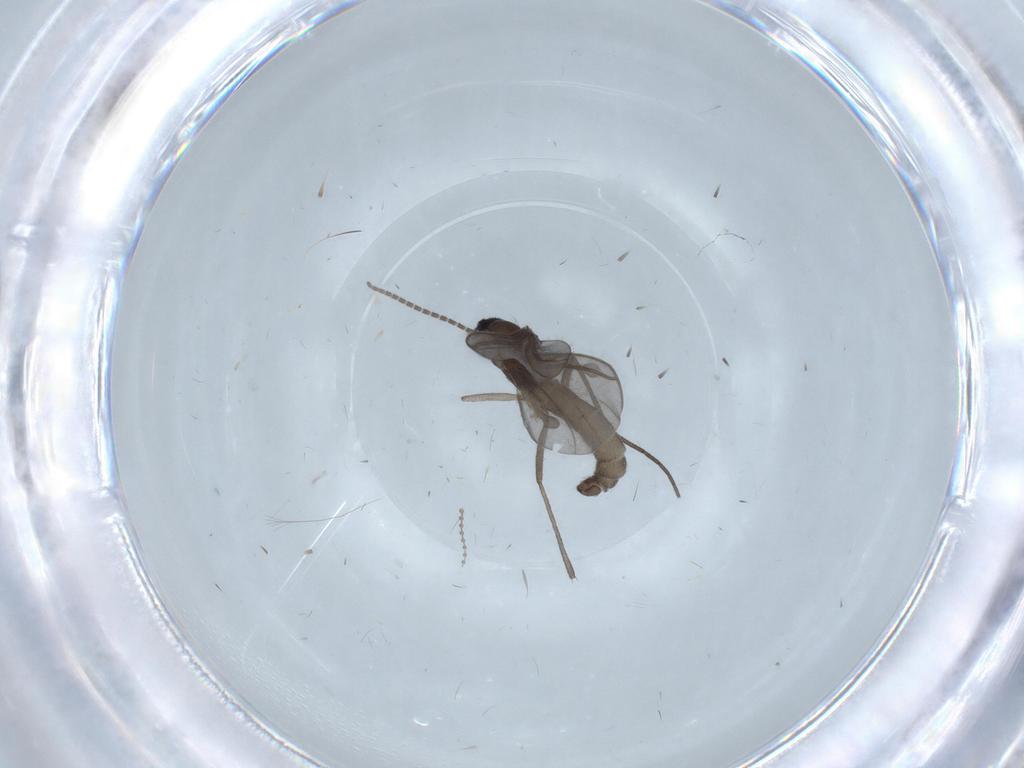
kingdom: Animalia
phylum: Arthropoda
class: Insecta
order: Diptera
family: Sciaridae
